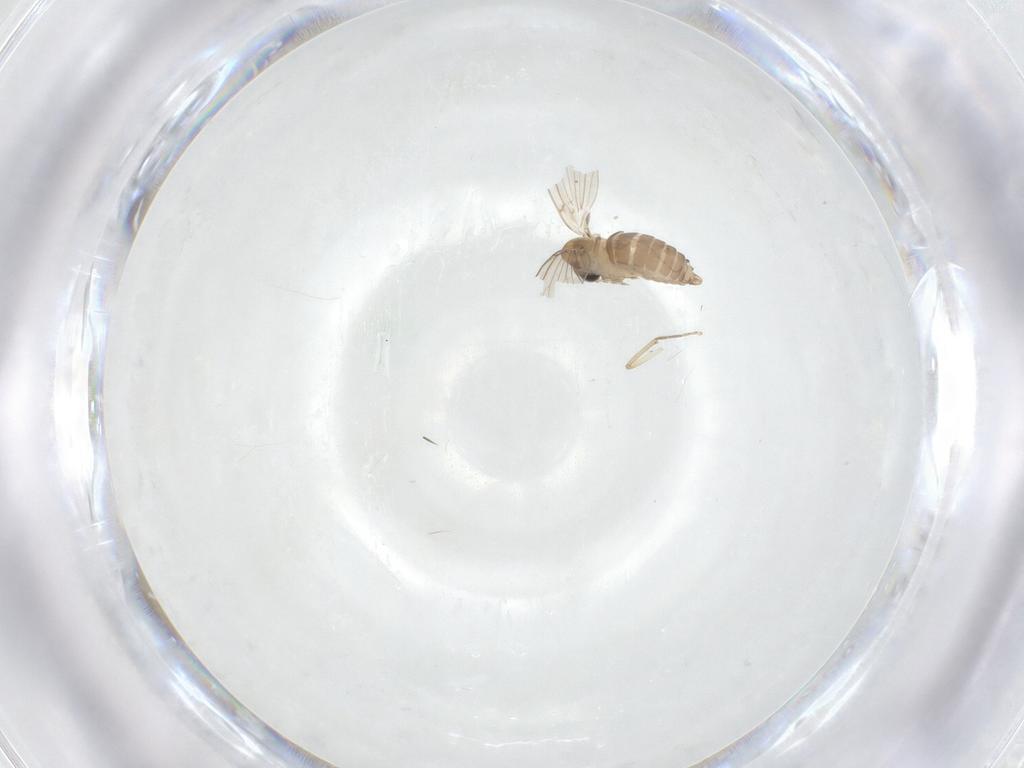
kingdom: Animalia
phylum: Arthropoda
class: Insecta
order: Diptera
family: Psychodidae
